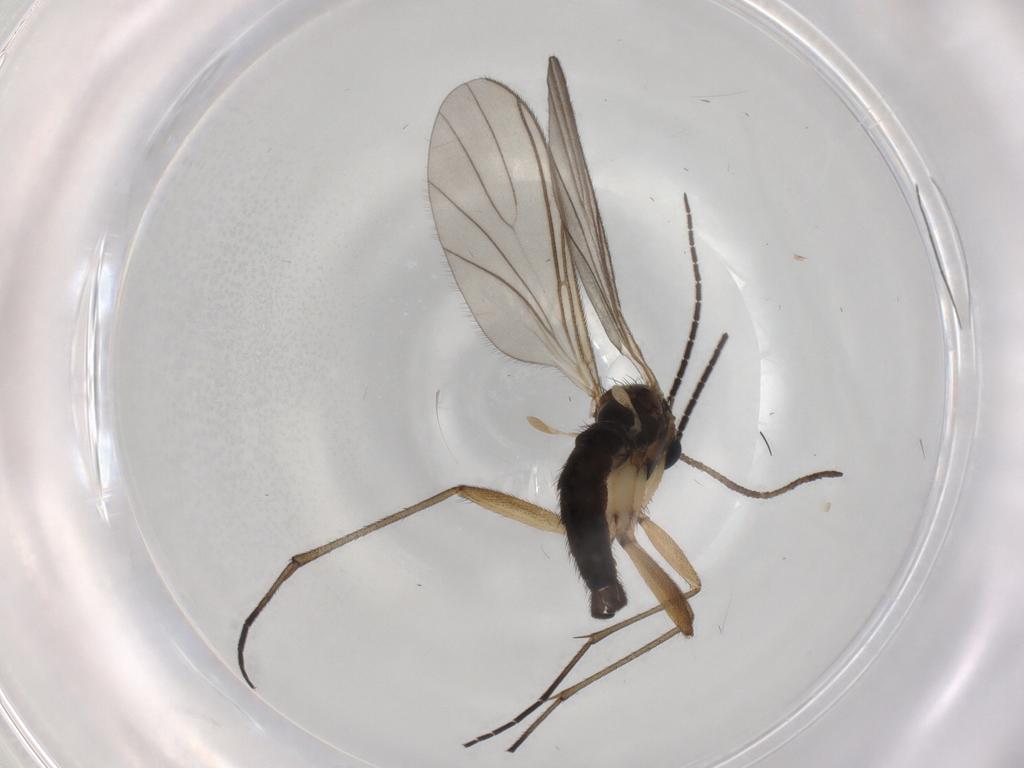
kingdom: Animalia
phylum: Arthropoda
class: Insecta
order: Diptera
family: Sciaridae
